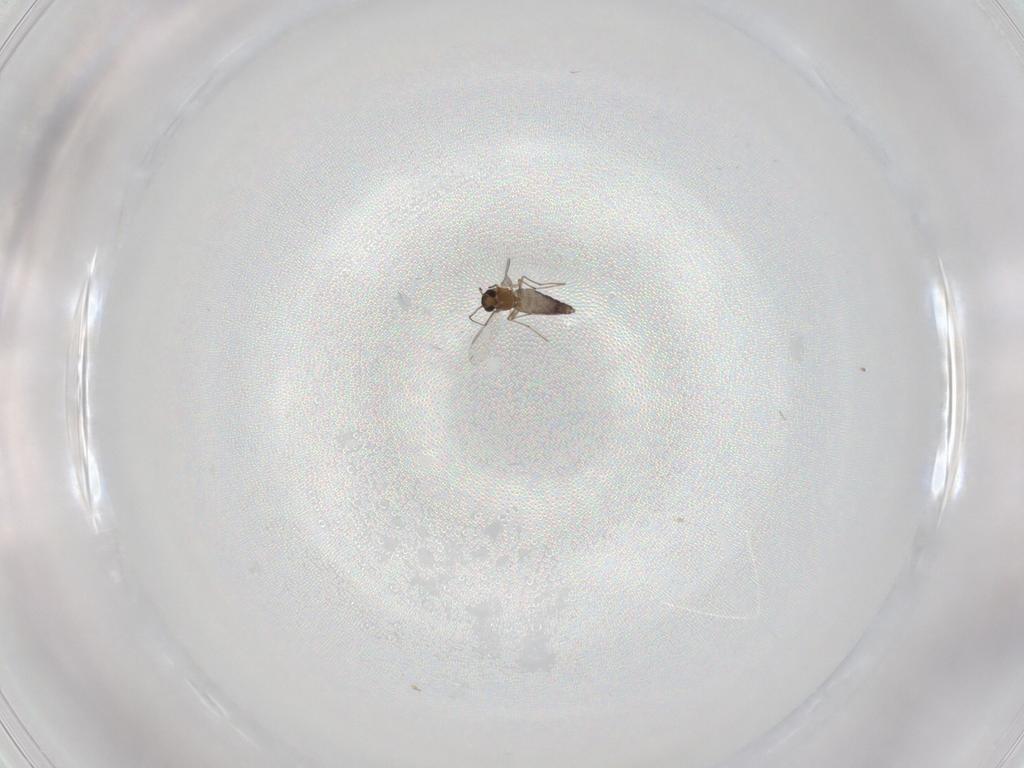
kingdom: Animalia
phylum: Arthropoda
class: Insecta
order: Diptera
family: Chironomidae
